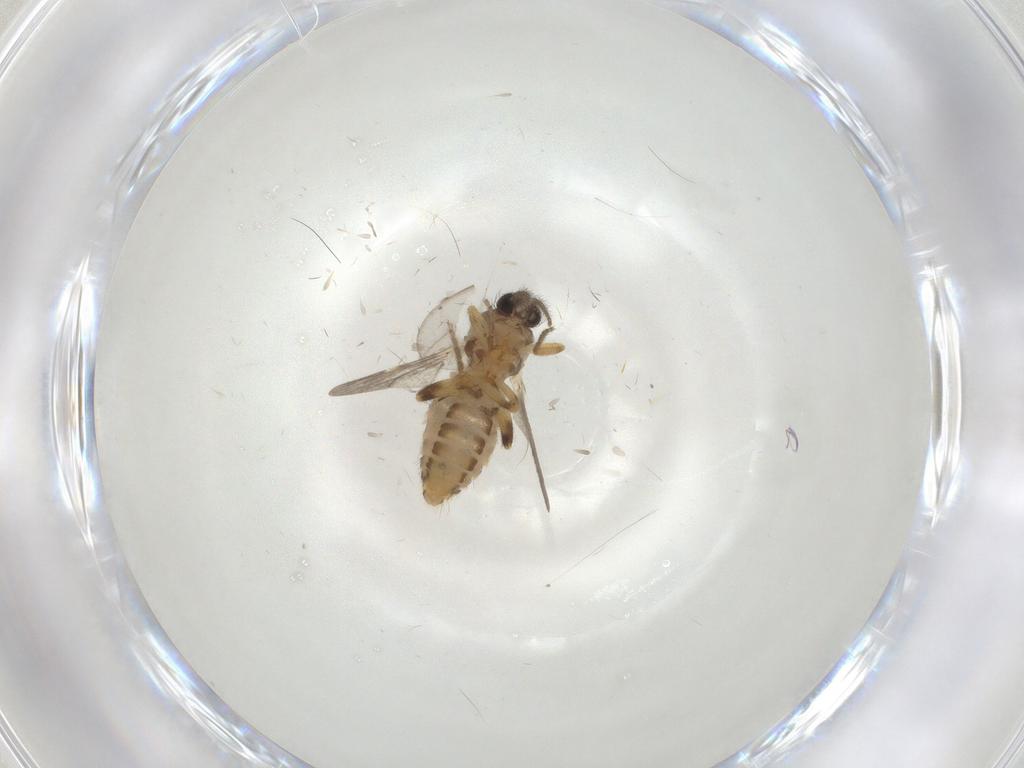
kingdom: Animalia
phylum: Arthropoda
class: Insecta
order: Diptera
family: Ceratopogonidae
